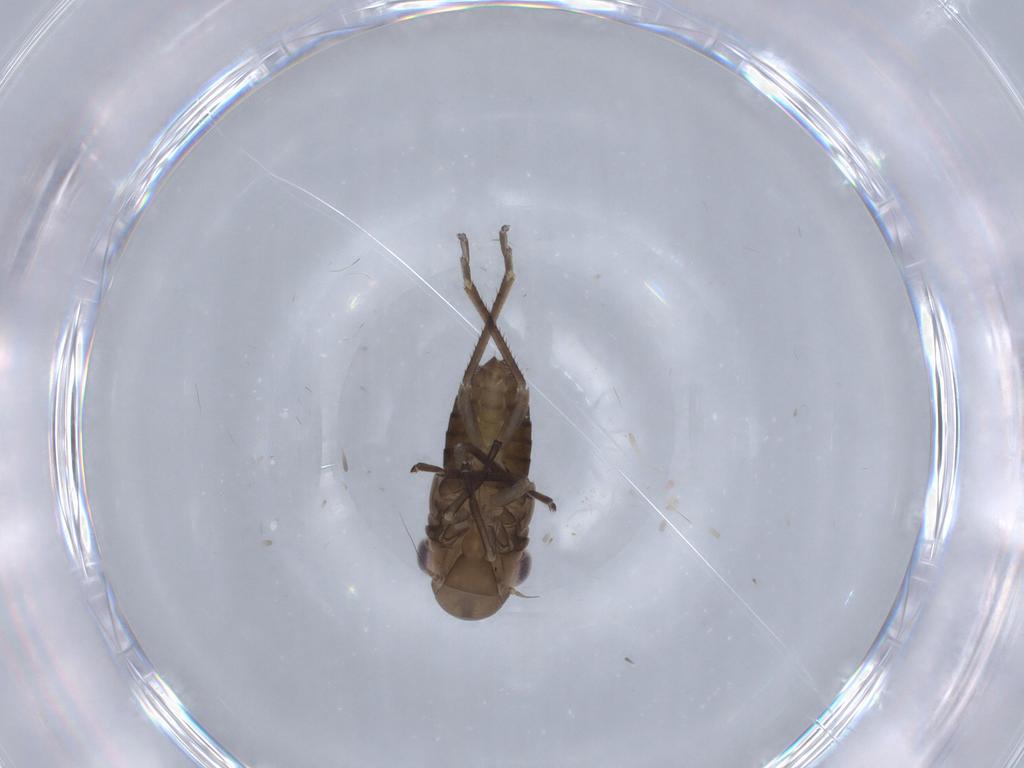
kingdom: Animalia
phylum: Arthropoda
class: Insecta
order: Hemiptera
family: Cicadellidae
